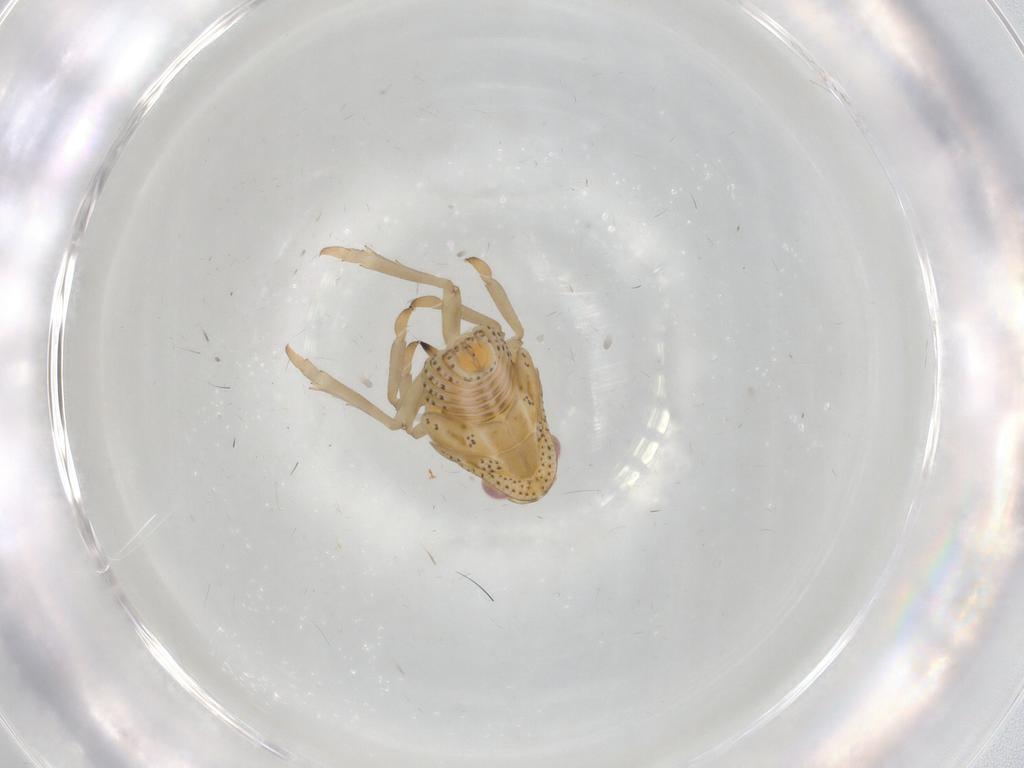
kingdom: Animalia
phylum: Arthropoda
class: Insecta
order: Hemiptera
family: Tropiduchidae
